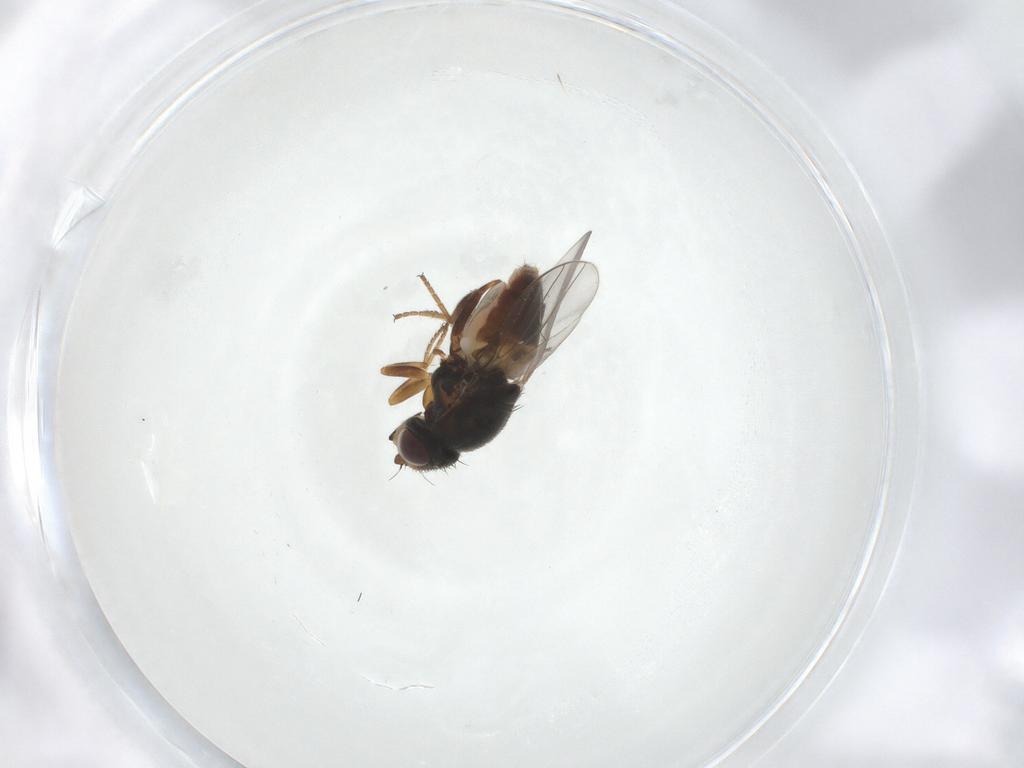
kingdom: Animalia
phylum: Arthropoda
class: Insecta
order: Diptera
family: Chloropidae
